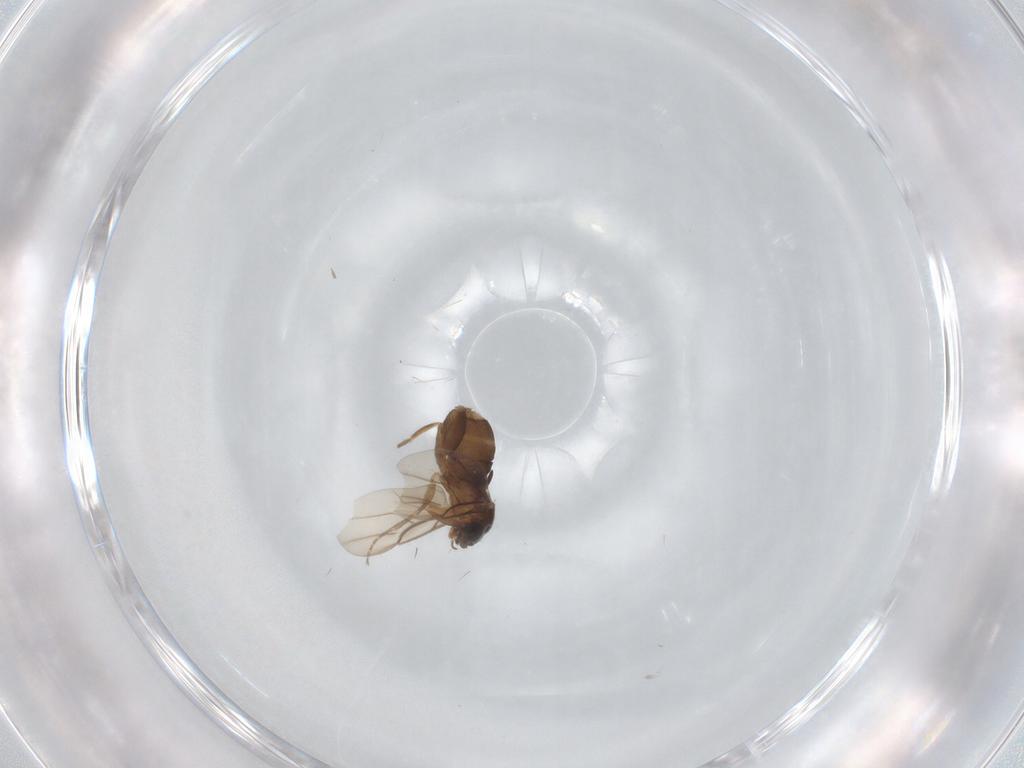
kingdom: Animalia
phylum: Arthropoda
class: Insecta
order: Diptera
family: Phoridae
